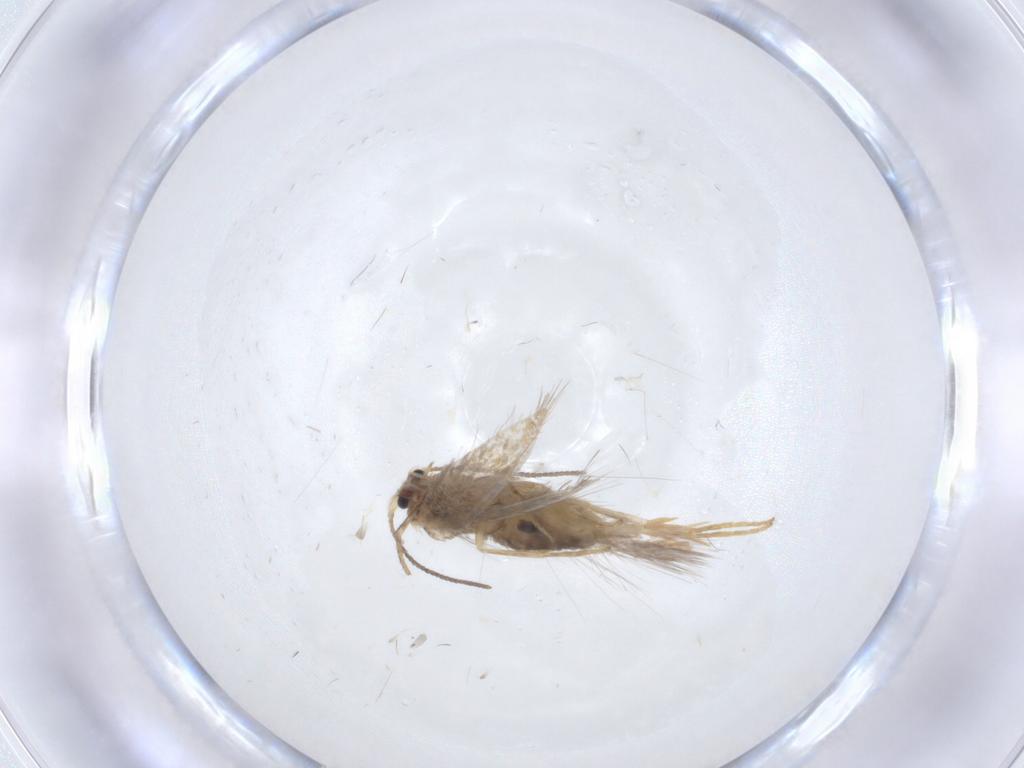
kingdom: Animalia
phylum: Arthropoda
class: Insecta
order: Lepidoptera
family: Nepticulidae
